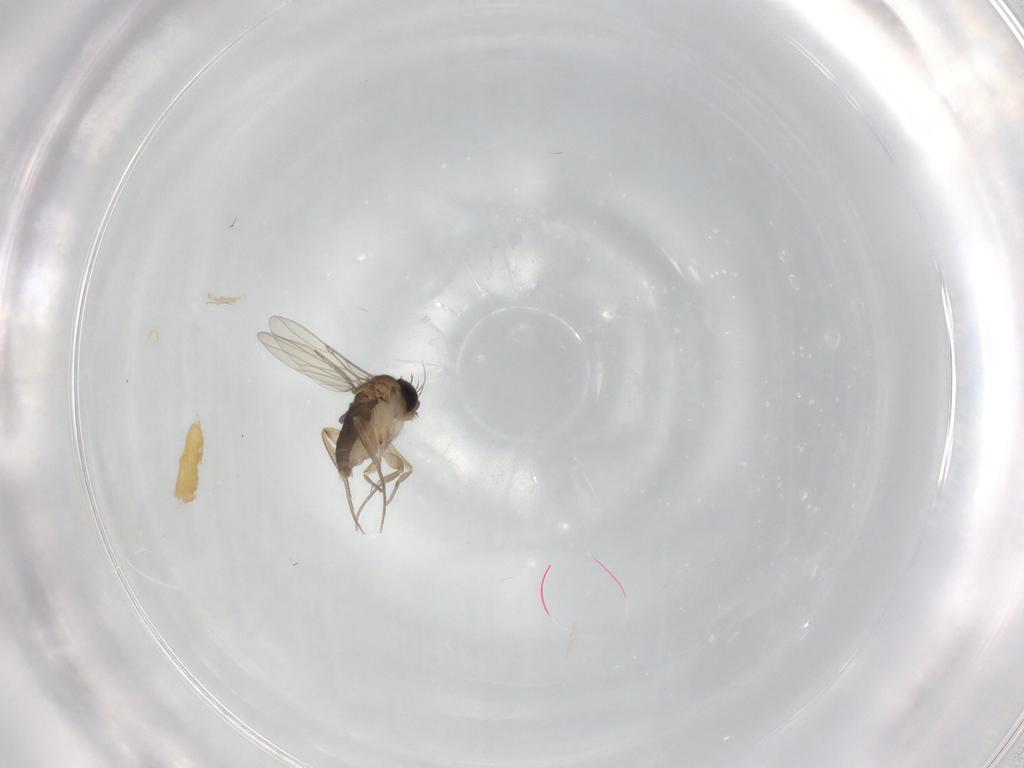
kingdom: Animalia
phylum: Arthropoda
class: Insecta
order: Diptera
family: Phoridae
